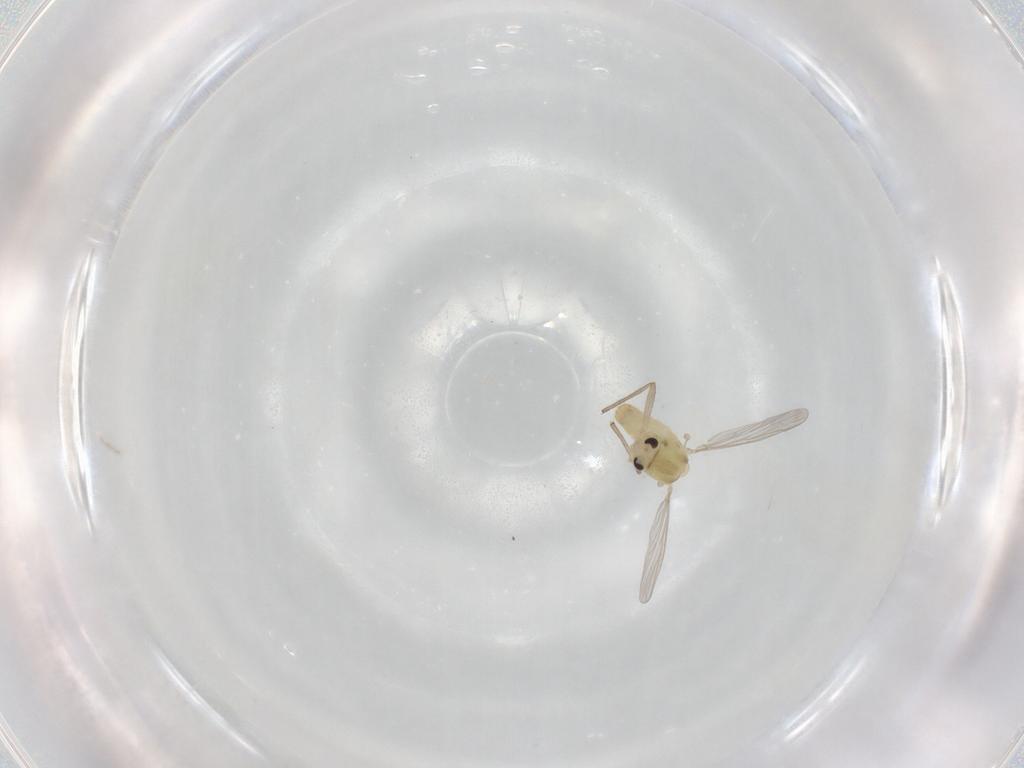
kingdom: Animalia
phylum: Arthropoda
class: Insecta
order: Diptera
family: Chironomidae
